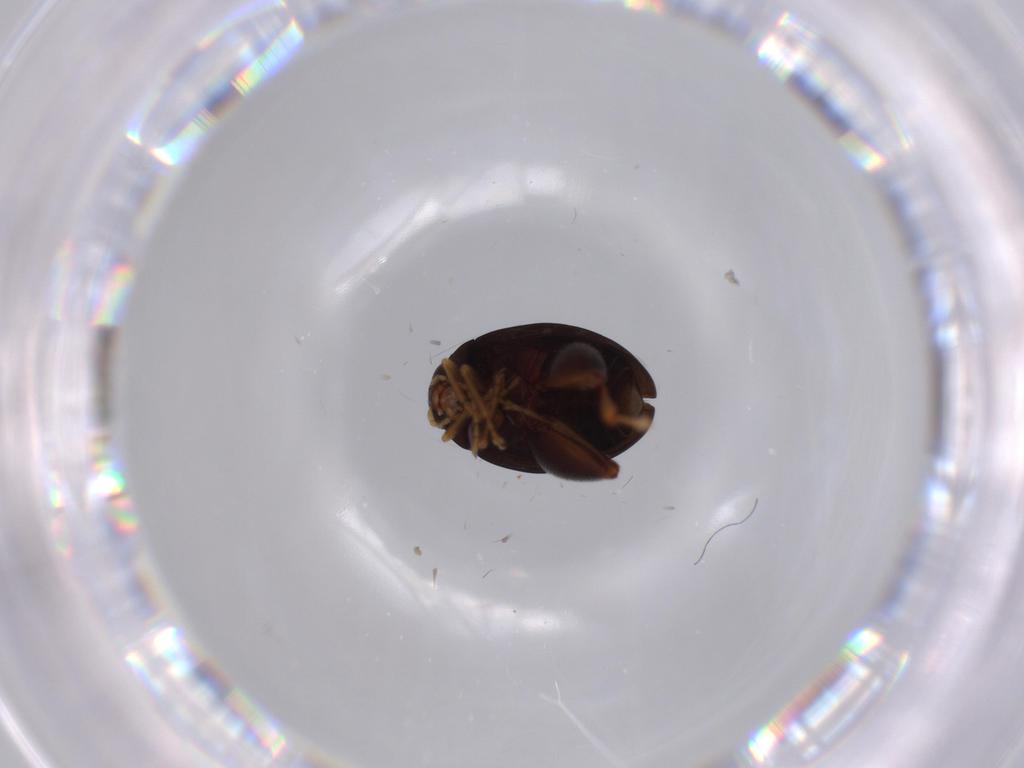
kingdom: Animalia
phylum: Arthropoda
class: Insecta
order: Coleoptera
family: Chrysomelidae
